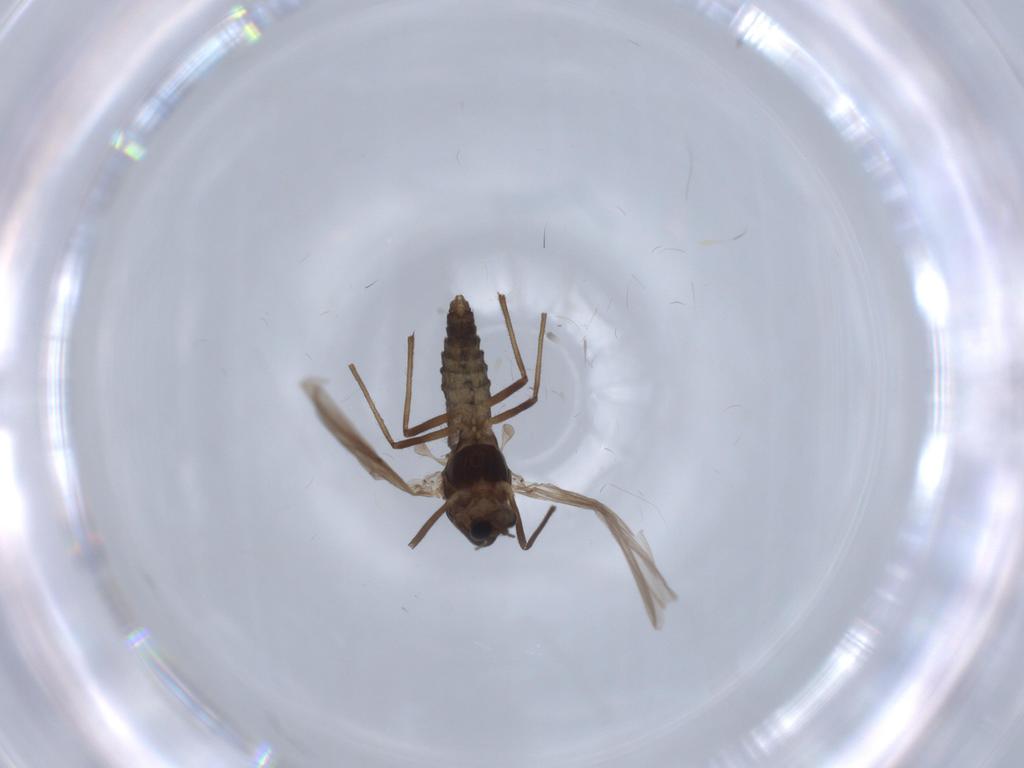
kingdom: Animalia
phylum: Arthropoda
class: Insecta
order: Diptera
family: Chironomidae
